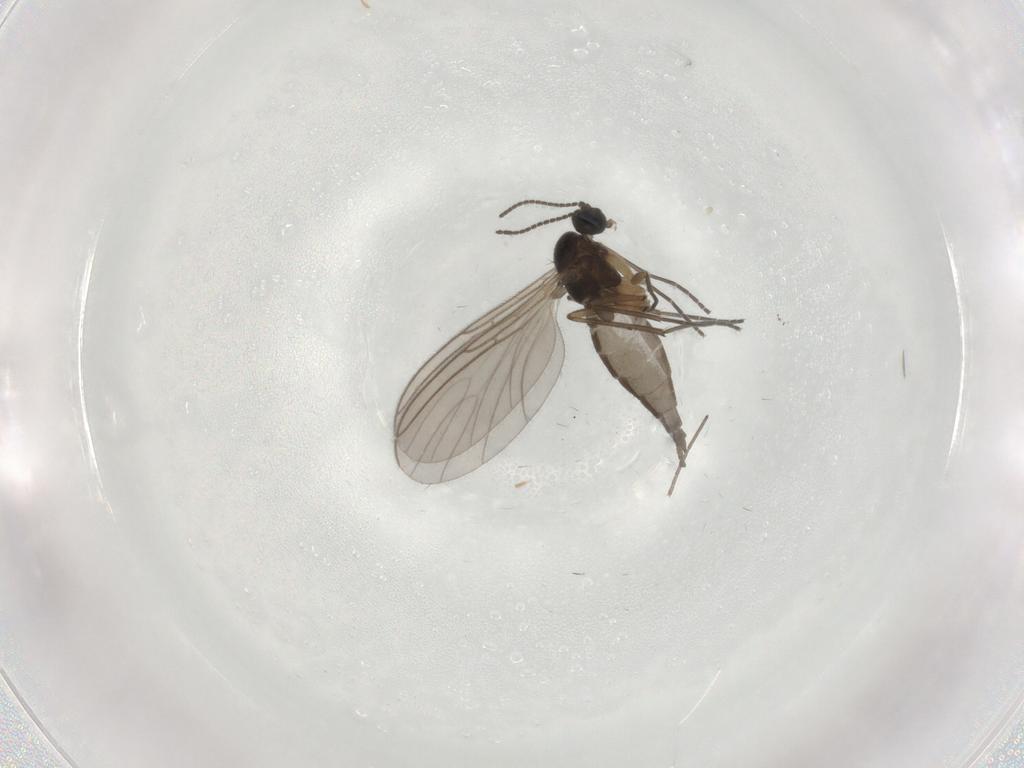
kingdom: Animalia
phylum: Arthropoda
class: Insecta
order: Diptera
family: Sciaridae
